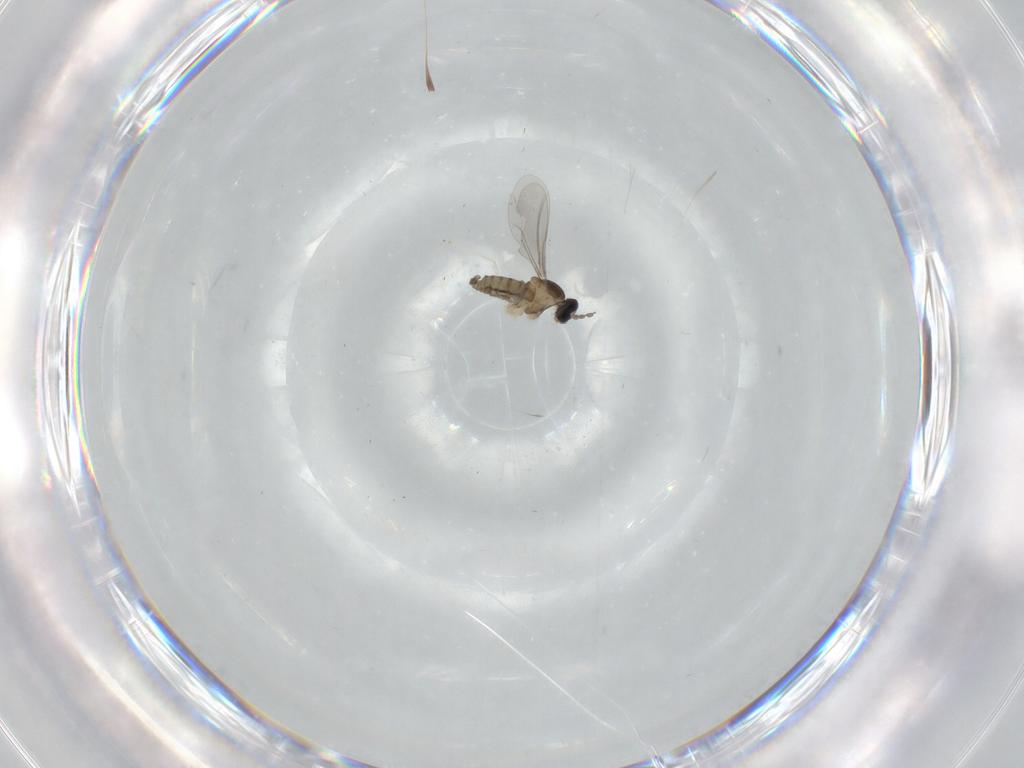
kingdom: Animalia
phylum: Arthropoda
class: Insecta
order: Diptera
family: Cecidomyiidae
